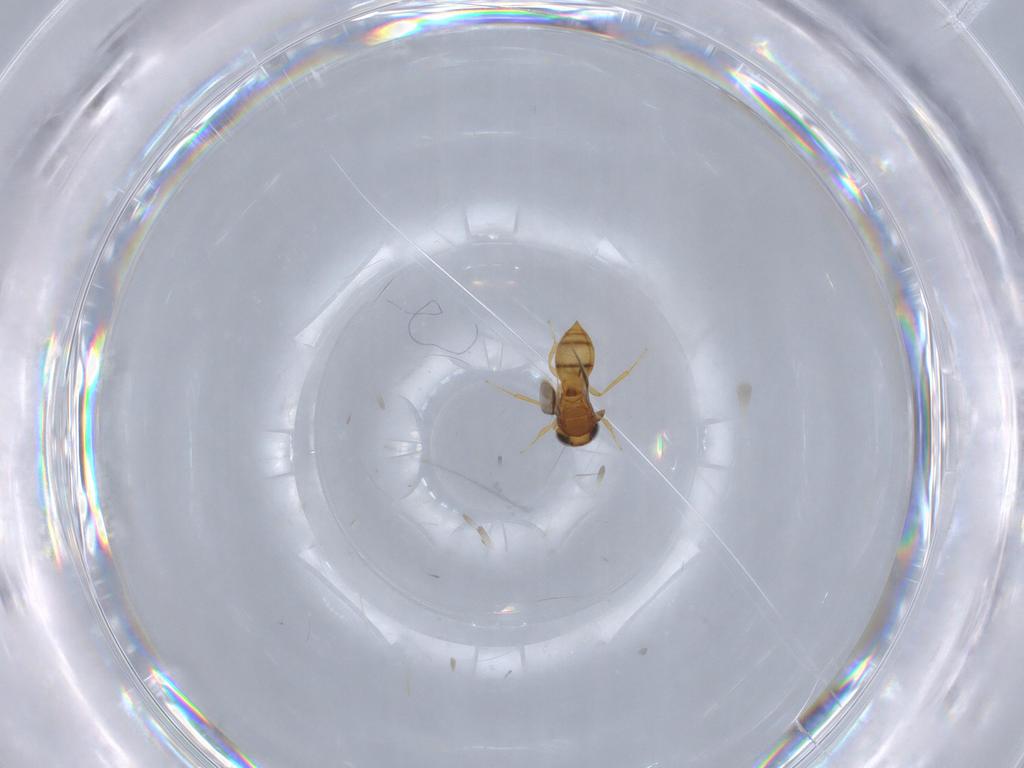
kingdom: Animalia
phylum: Arthropoda
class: Insecta
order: Hymenoptera
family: Scelionidae
